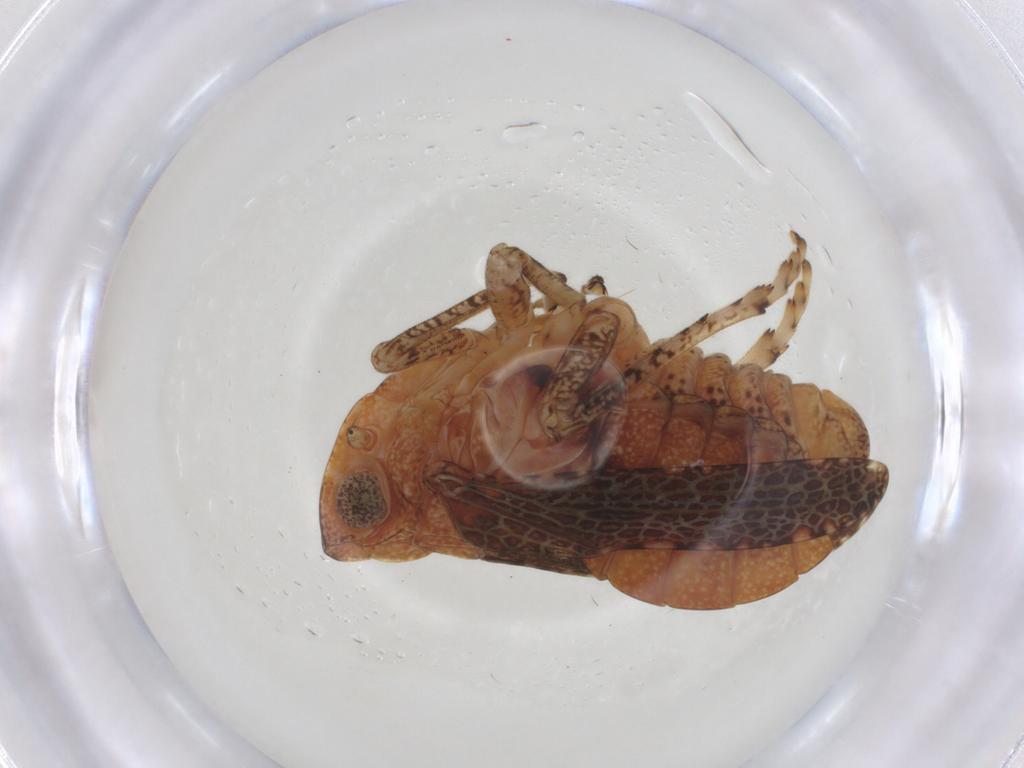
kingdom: Animalia
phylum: Arthropoda
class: Insecta
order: Hemiptera
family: Tropiduchidae
